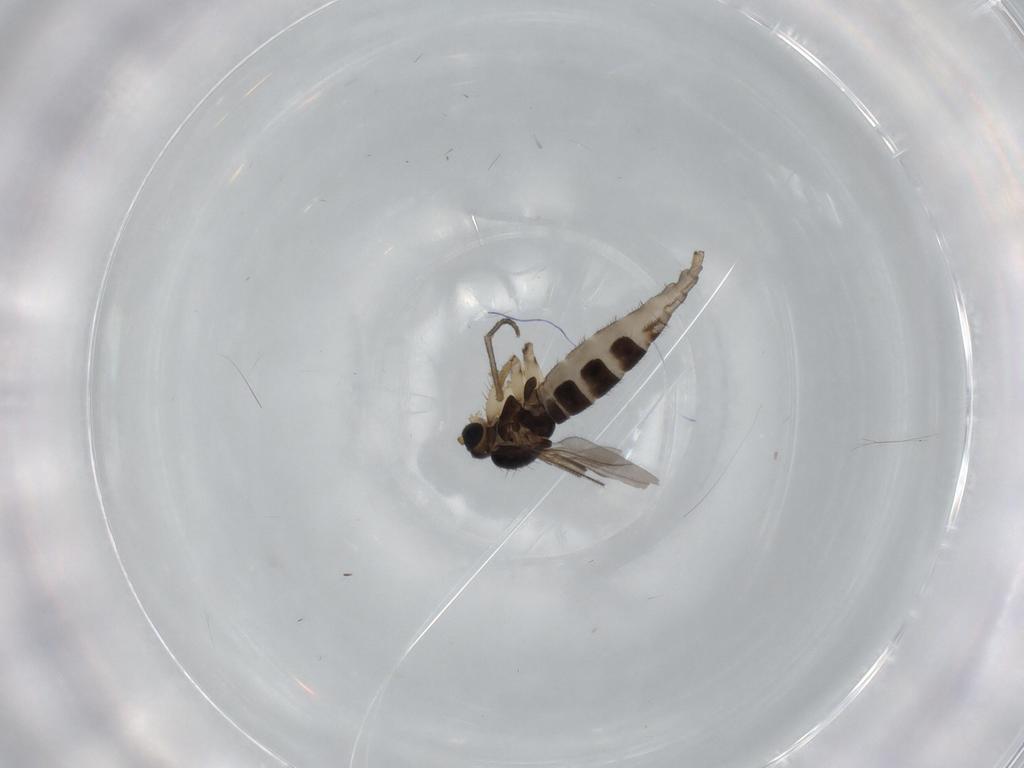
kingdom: Animalia
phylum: Arthropoda
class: Insecta
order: Diptera
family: Sciaridae
